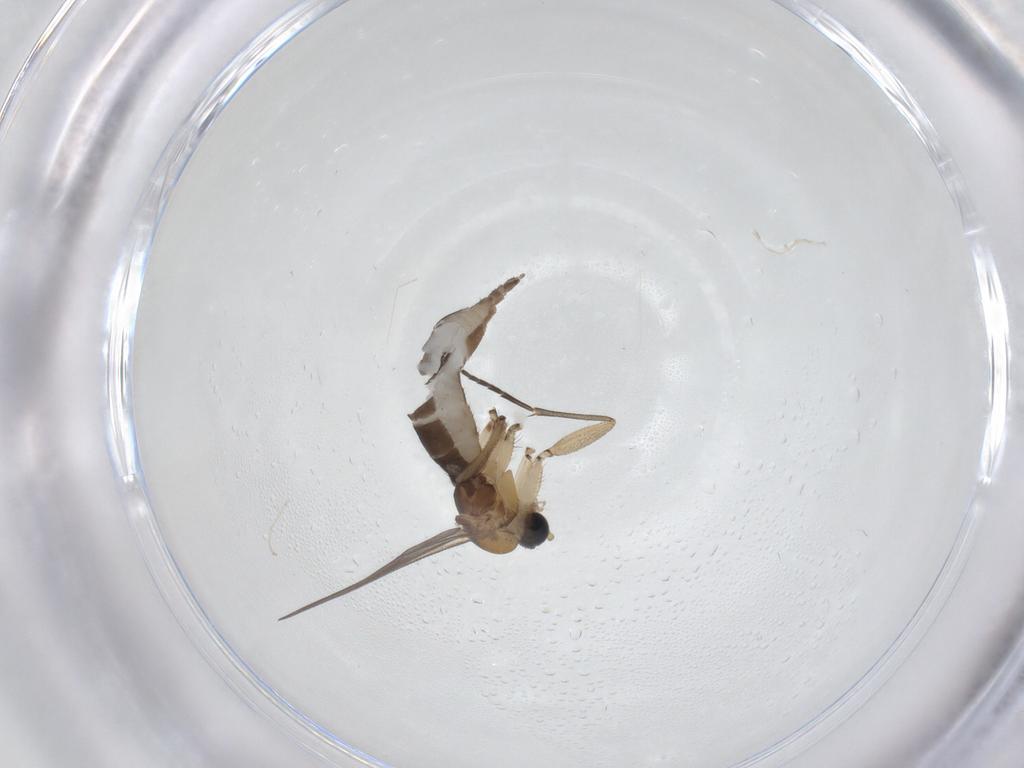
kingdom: Animalia
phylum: Arthropoda
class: Insecta
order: Diptera
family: Sciaridae
